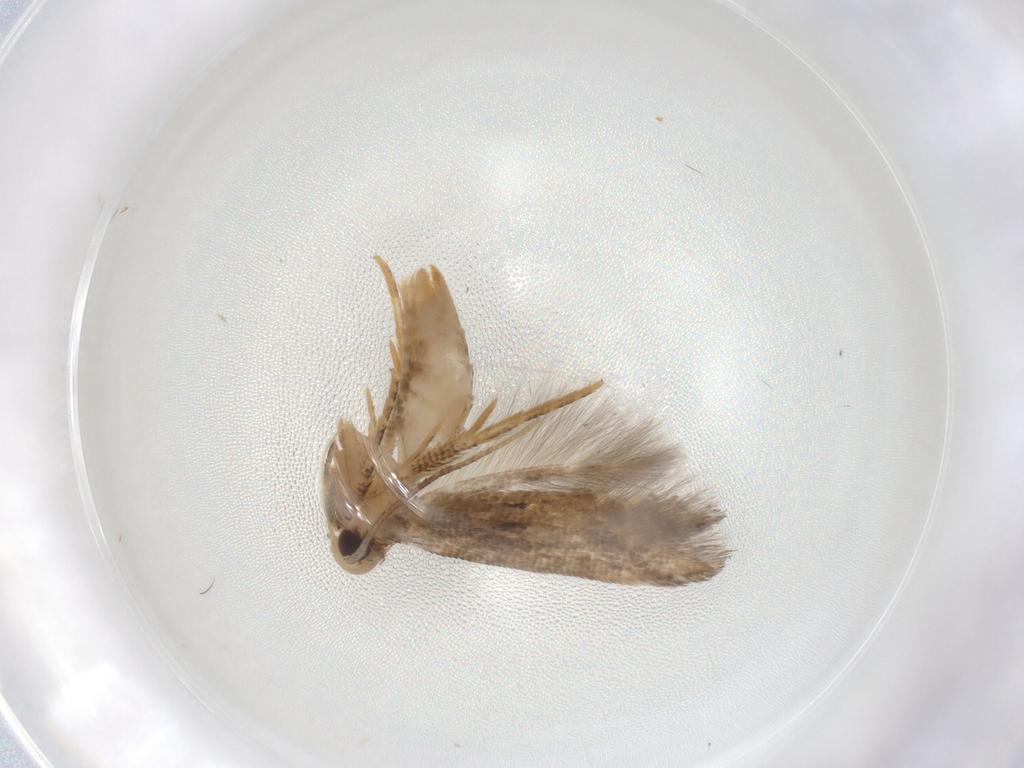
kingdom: Animalia
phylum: Arthropoda
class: Insecta
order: Lepidoptera
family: Cosmopterigidae
